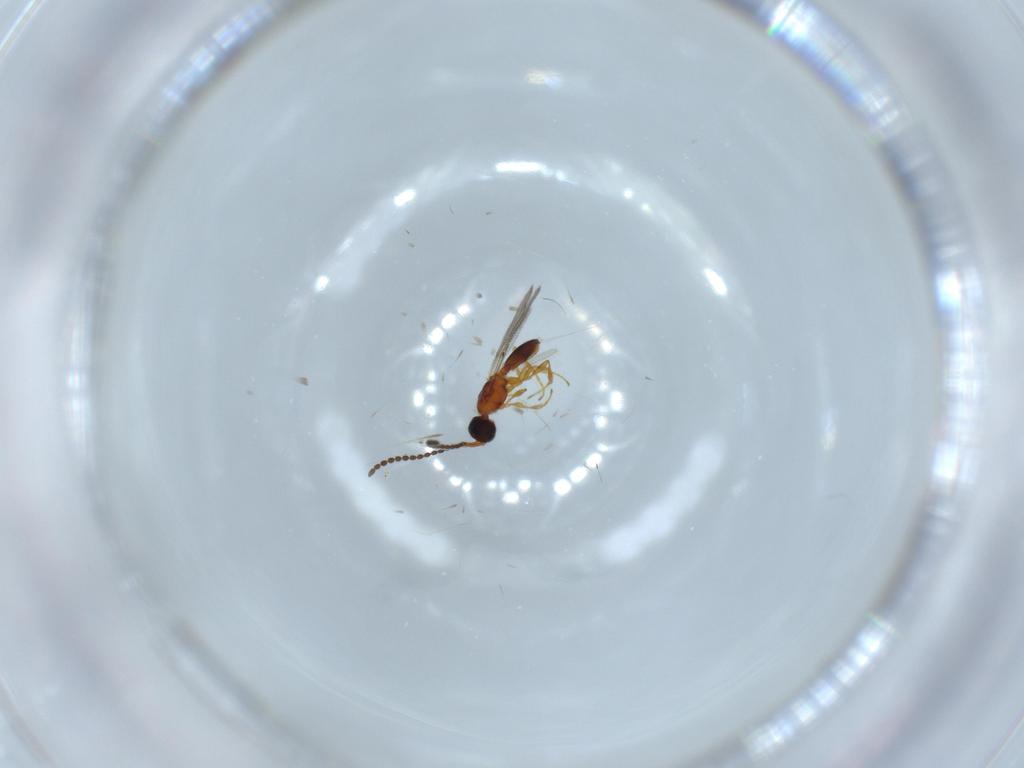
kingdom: Animalia
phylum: Arthropoda
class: Insecta
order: Hymenoptera
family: Diapriidae
